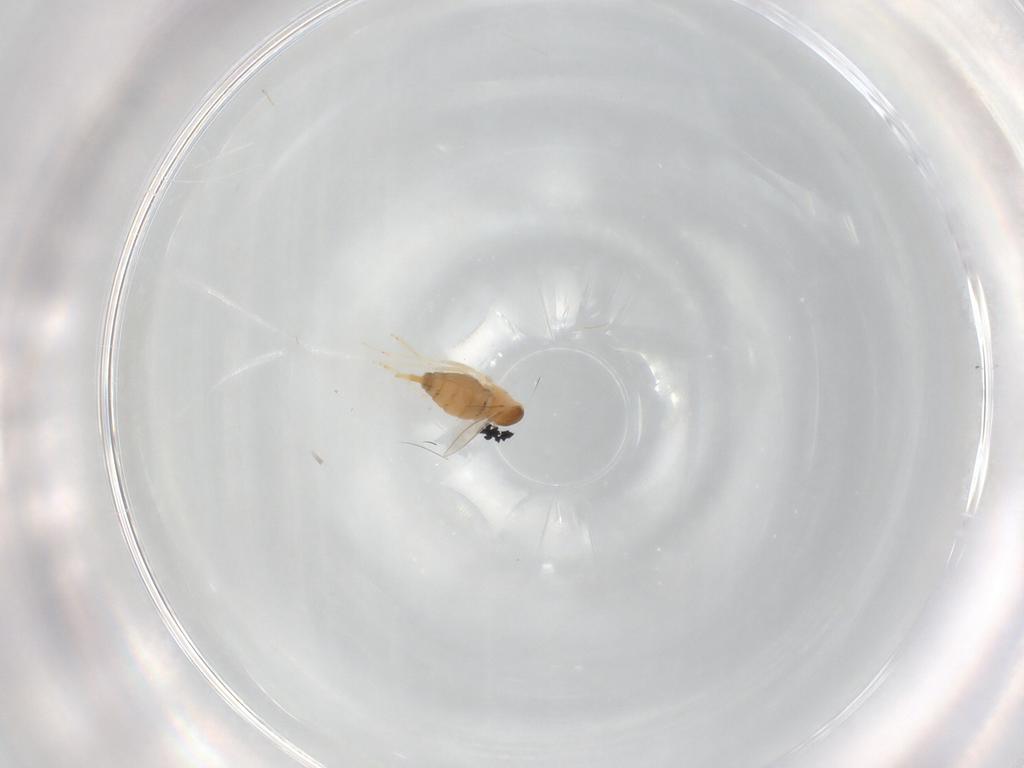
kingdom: Animalia
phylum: Arthropoda
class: Insecta
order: Diptera
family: Cecidomyiidae
